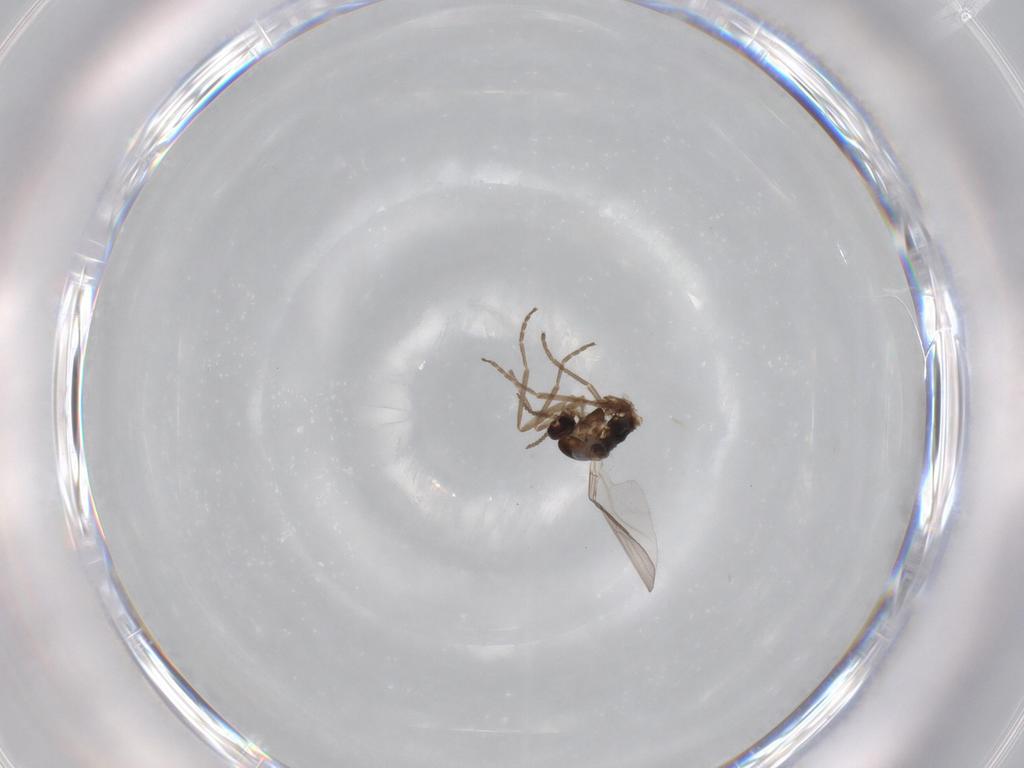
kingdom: Animalia
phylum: Arthropoda
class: Insecta
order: Diptera
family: Cecidomyiidae
